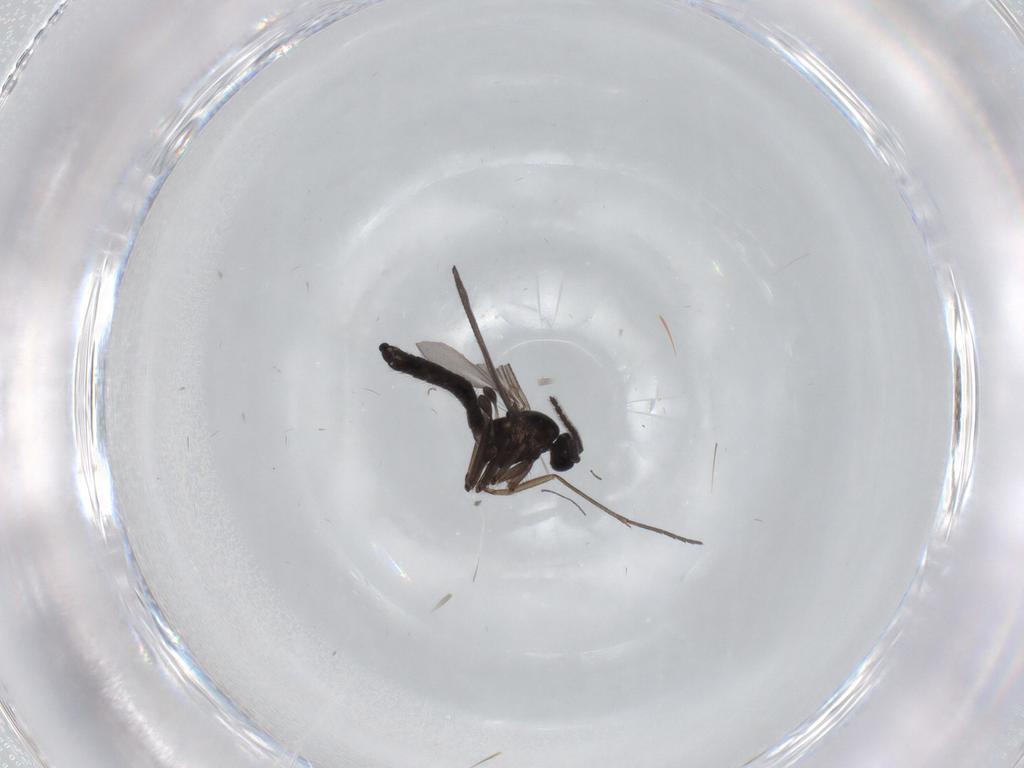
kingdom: Animalia
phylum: Arthropoda
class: Insecta
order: Diptera
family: Sciaridae
